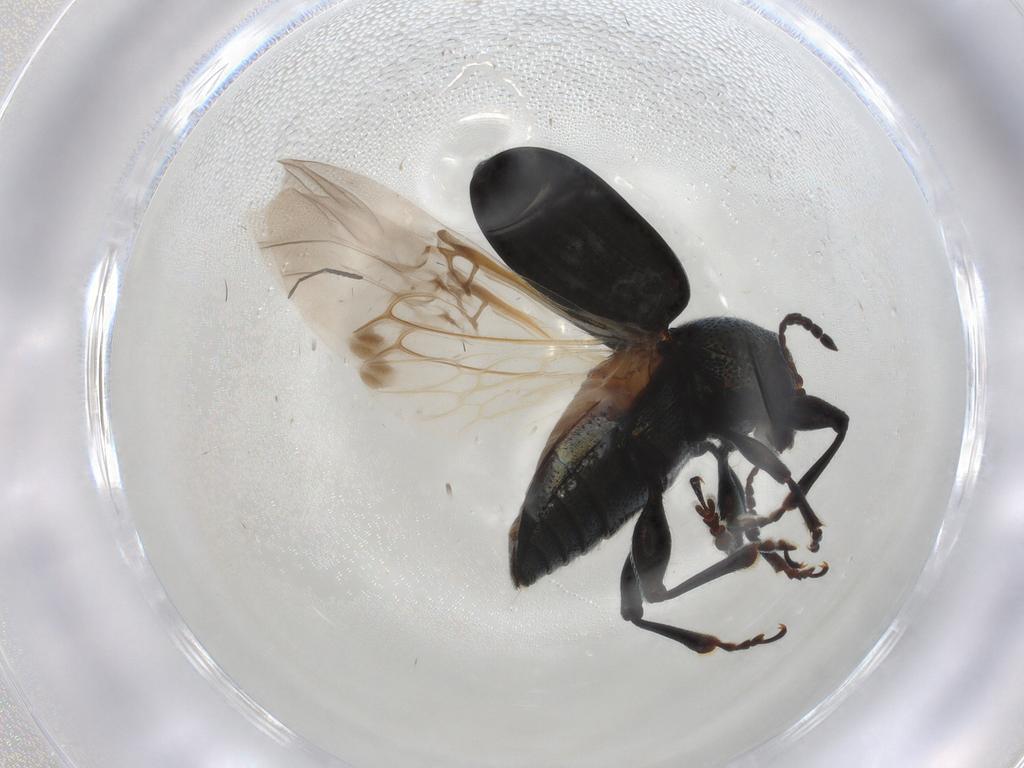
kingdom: Animalia
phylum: Arthropoda
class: Insecta
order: Coleoptera
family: Chrysomelidae
